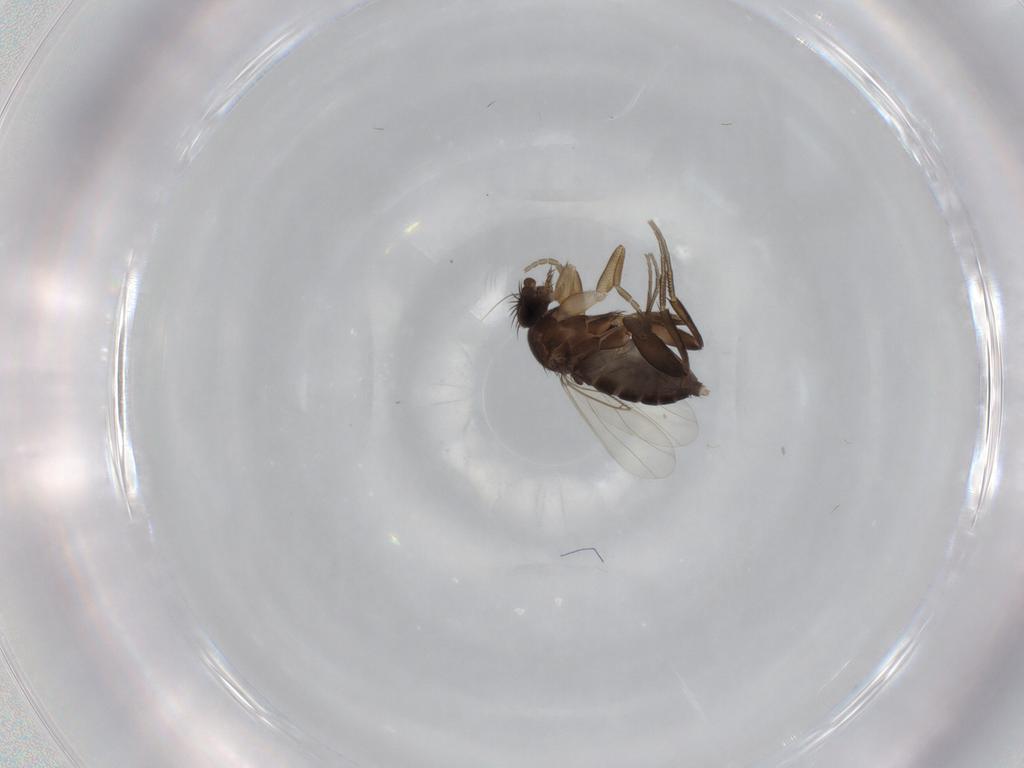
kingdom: Animalia
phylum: Arthropoda
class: Insecta
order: Diptera
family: Phoridae
